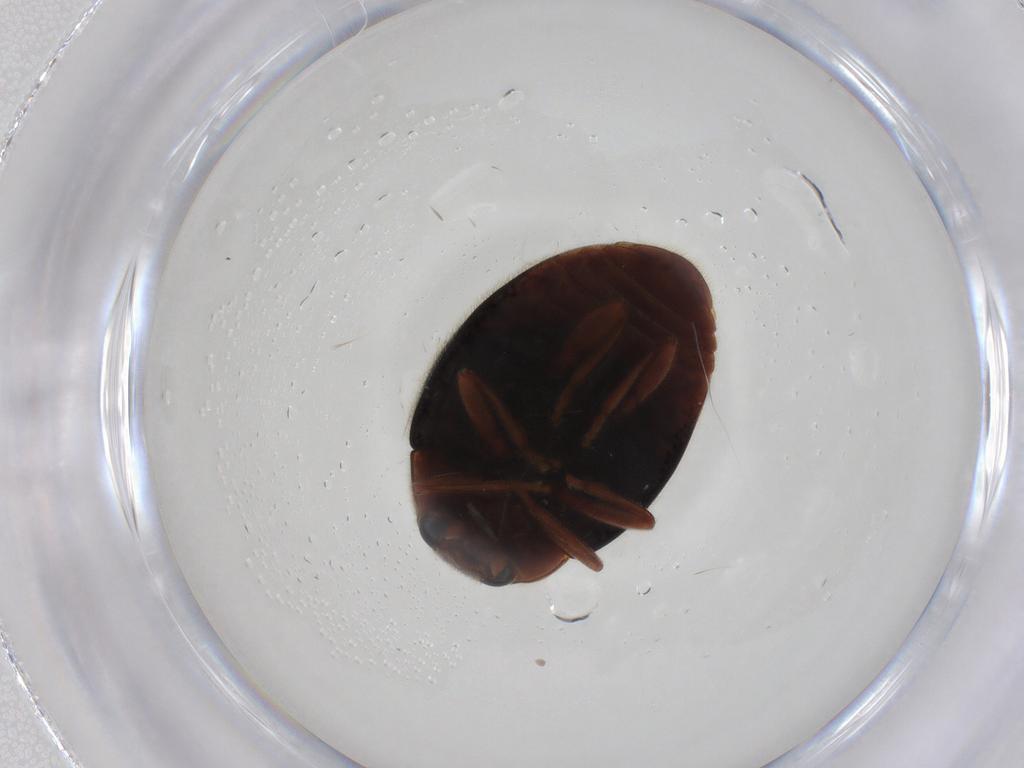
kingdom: Animalia
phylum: Arthropoda
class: Insecta
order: Coleoptera
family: Coccinellidae
